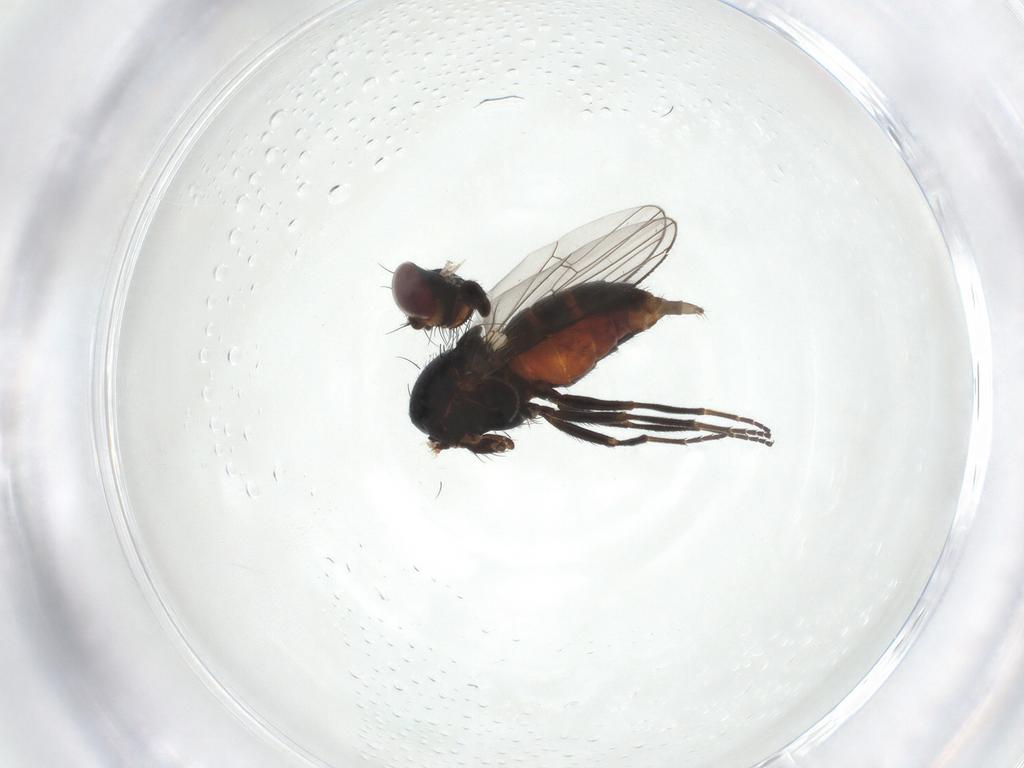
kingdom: Animalia
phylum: Arthropoda
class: Insecta
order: Diptera
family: Carnidae
